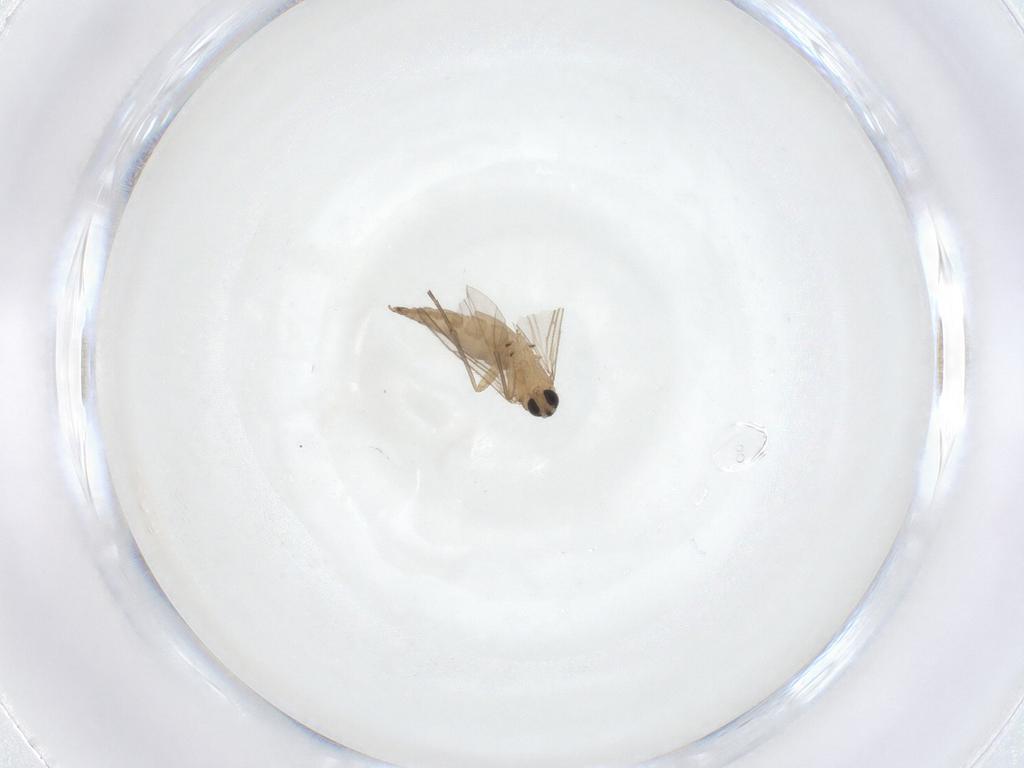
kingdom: Animalia
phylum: Arthropoda
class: Insecta
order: Diptera
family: Sciaridae
